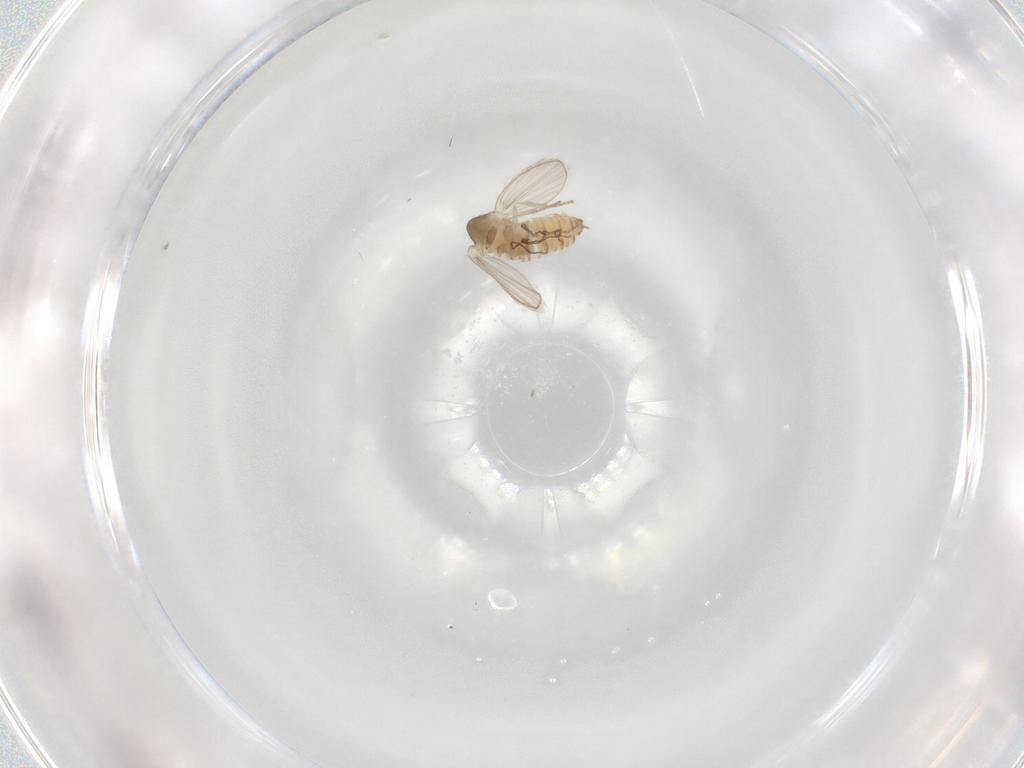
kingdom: Animalia
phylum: Arthropoda
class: Insecta
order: Diptera
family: Psychodidae
